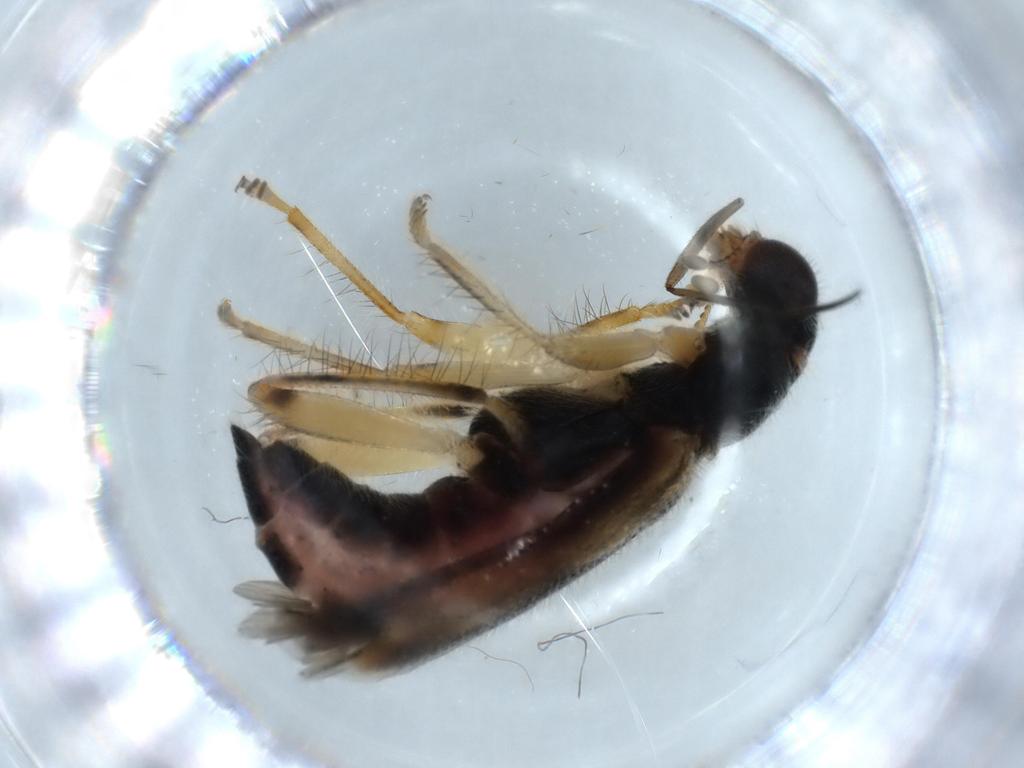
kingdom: Animalia
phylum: Arthropoda
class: Insecta
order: Coleoptera
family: Cleridae
